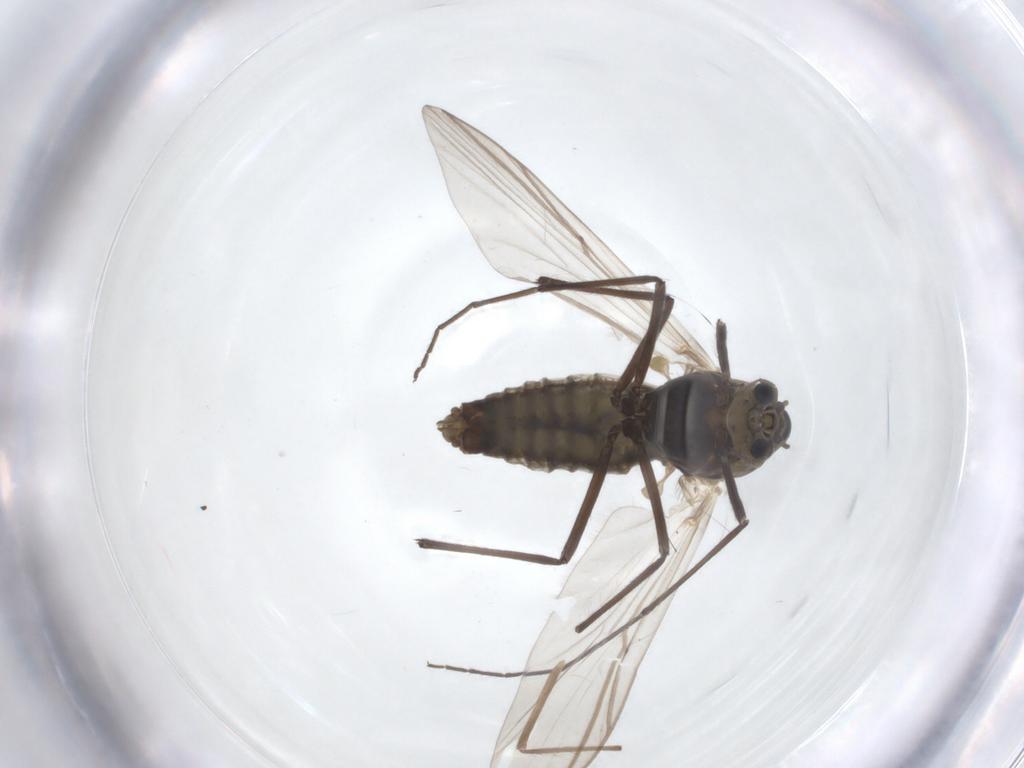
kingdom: Animalia
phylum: Arthropoda
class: Insecta
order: Diptera
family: Chironomidae
